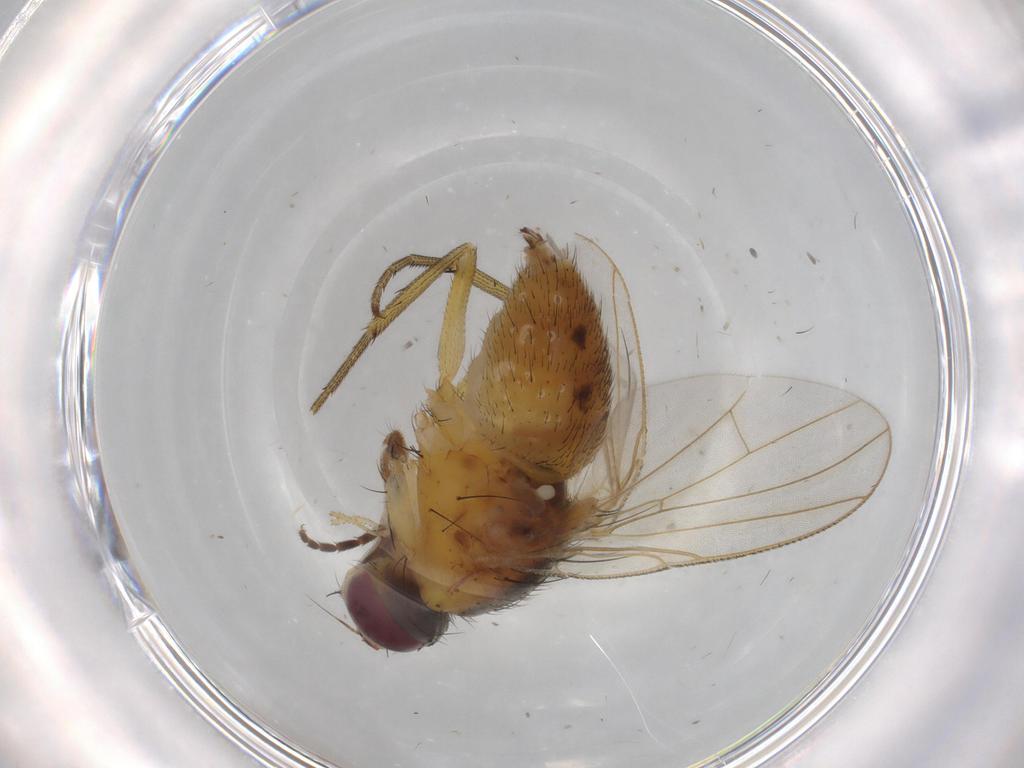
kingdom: Animalia
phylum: Arthropoda
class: Insecta
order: Diptera
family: Muscidae
